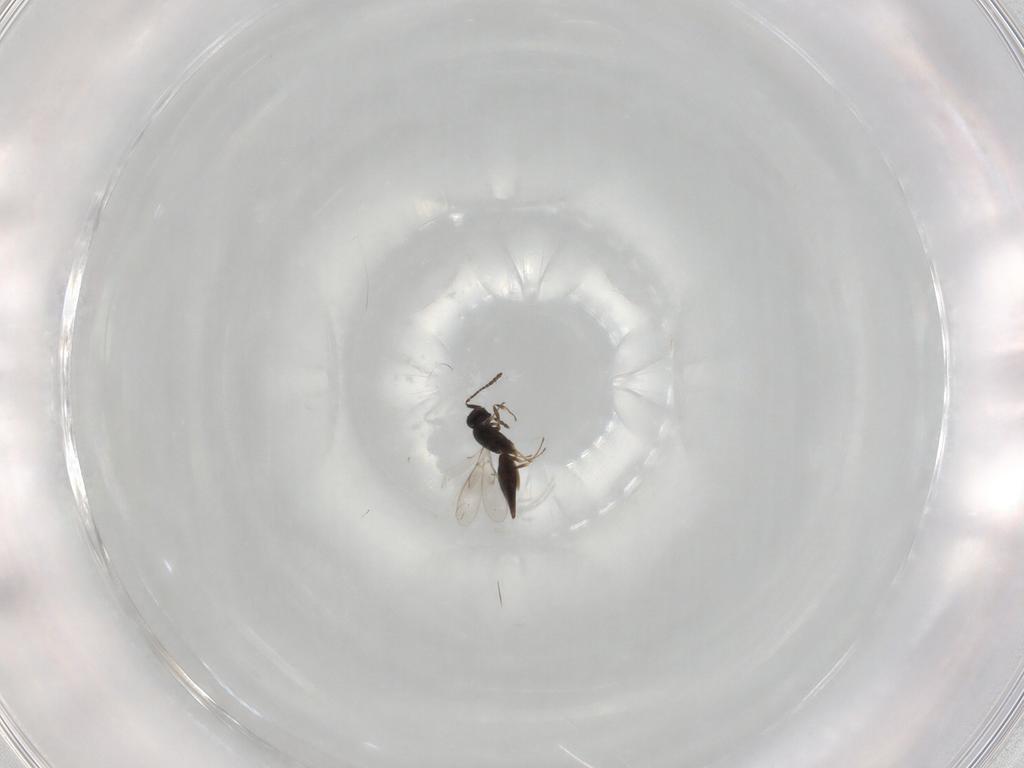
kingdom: Animalia
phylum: Arthropoda
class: Insecta
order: Hymenoptera
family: Scelionidae
